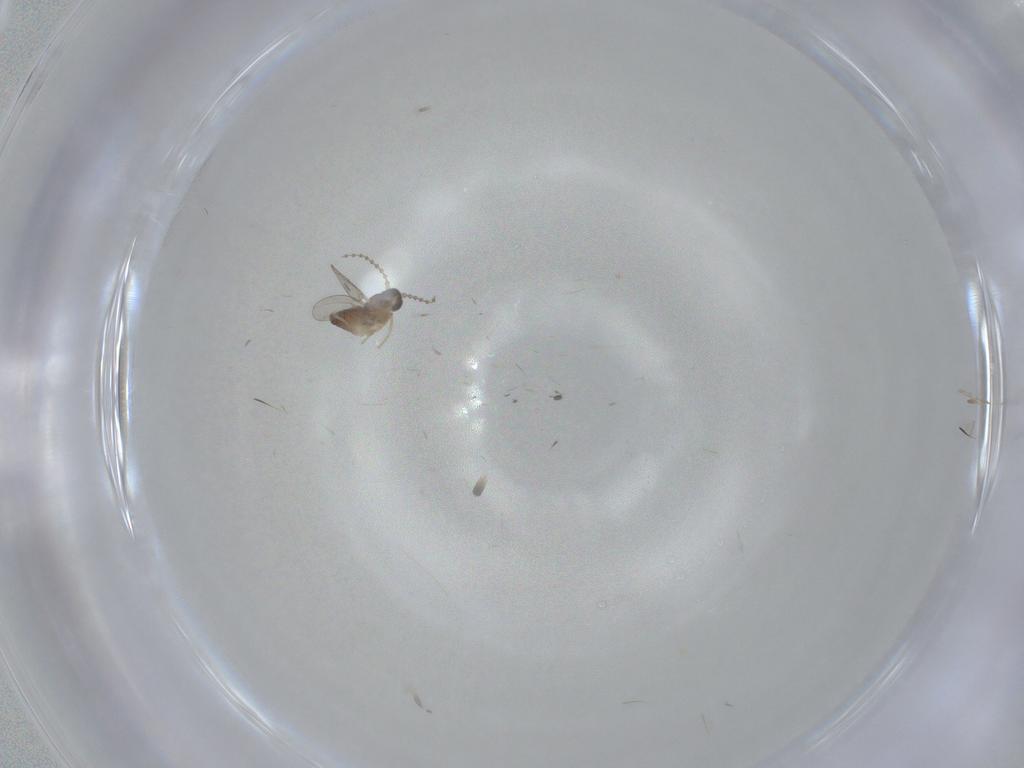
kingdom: Animalia
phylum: Arthropoda
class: Insecta
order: Diptera
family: Cecidomyiidae
